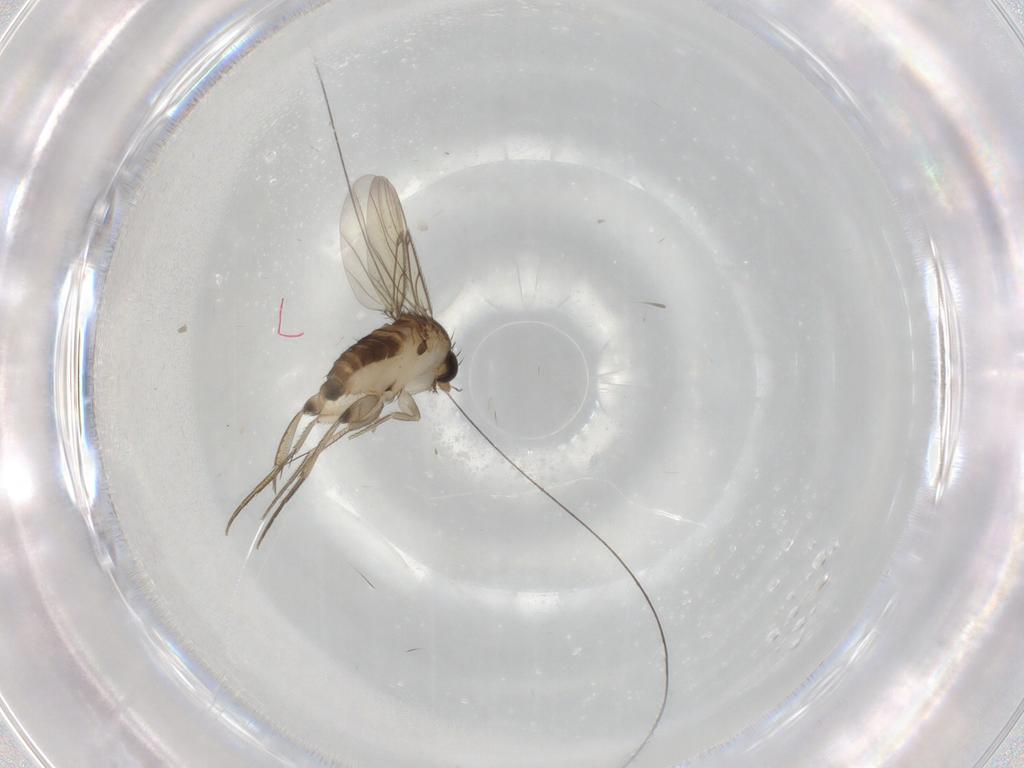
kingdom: Animalia
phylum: Arthropoda
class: Insecta
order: Diptera
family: Phoridae
